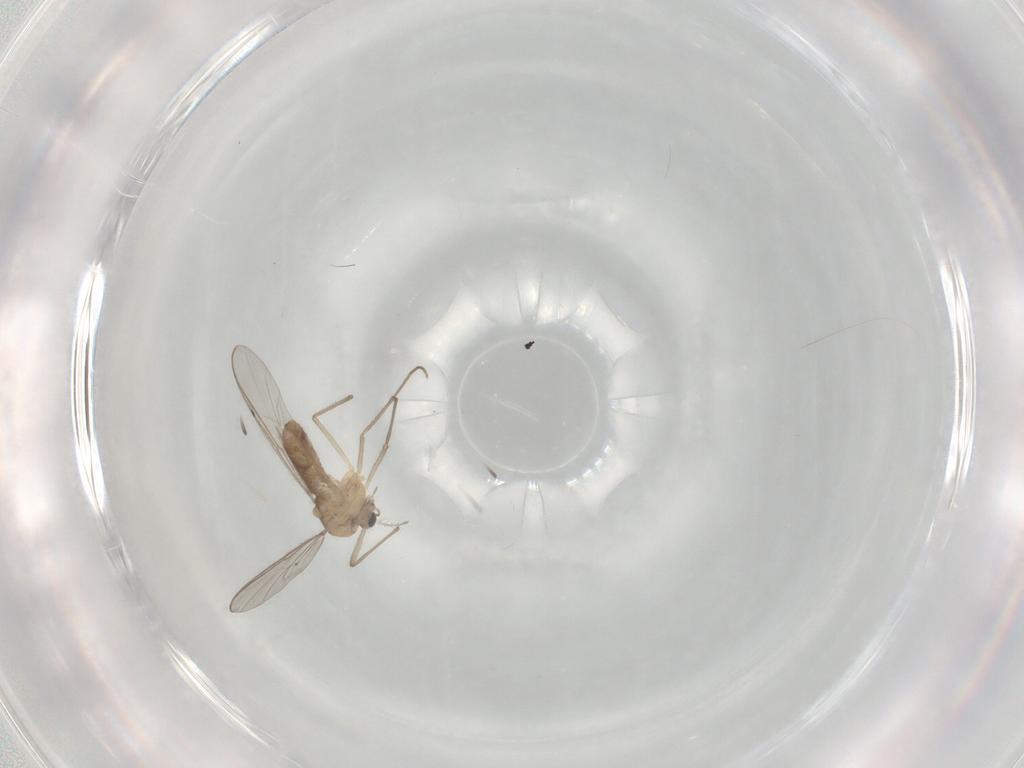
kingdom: Animalia
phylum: Arthropoda
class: Insecta
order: Diptera
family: Chironomidae
